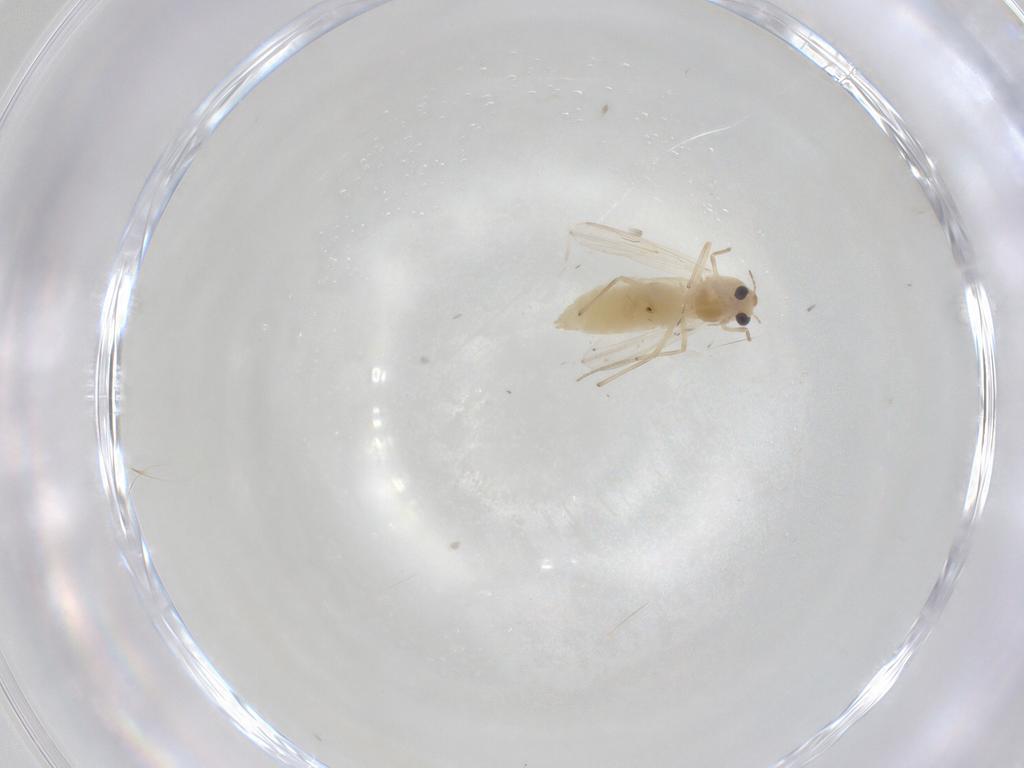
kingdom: Animalia
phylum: Arthropoda
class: Insecta
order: Diptera
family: Chironomidae
